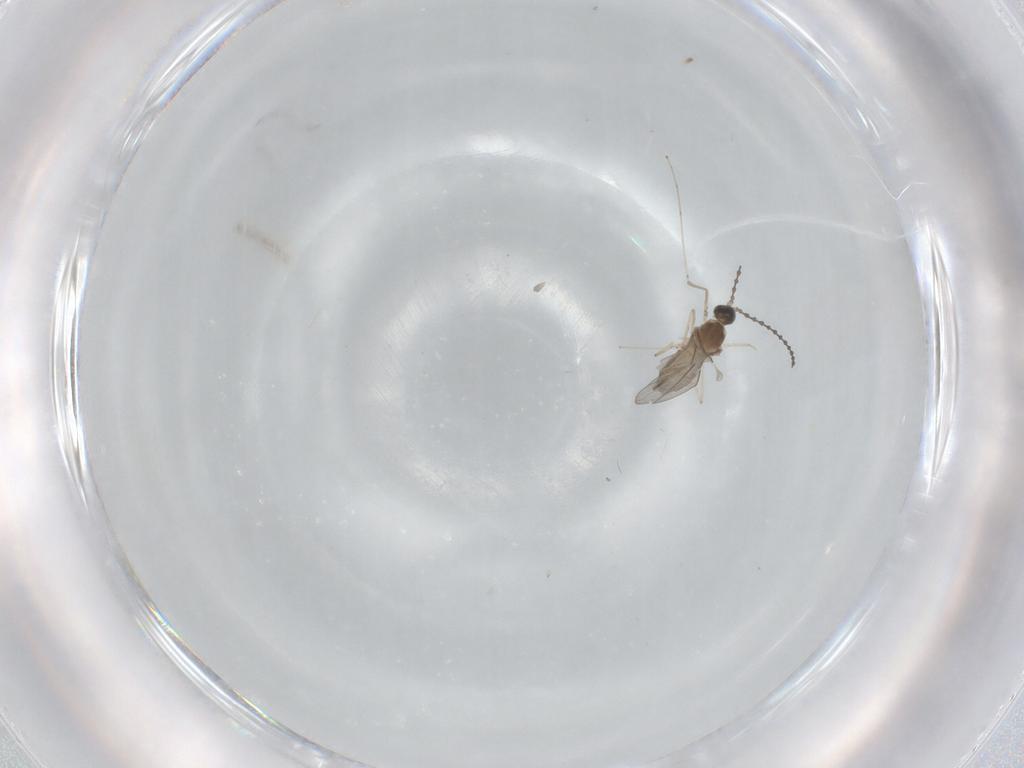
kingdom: Animalia
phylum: Arthropoda
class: Insecta
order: Diptera
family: Cecidomyiidae
